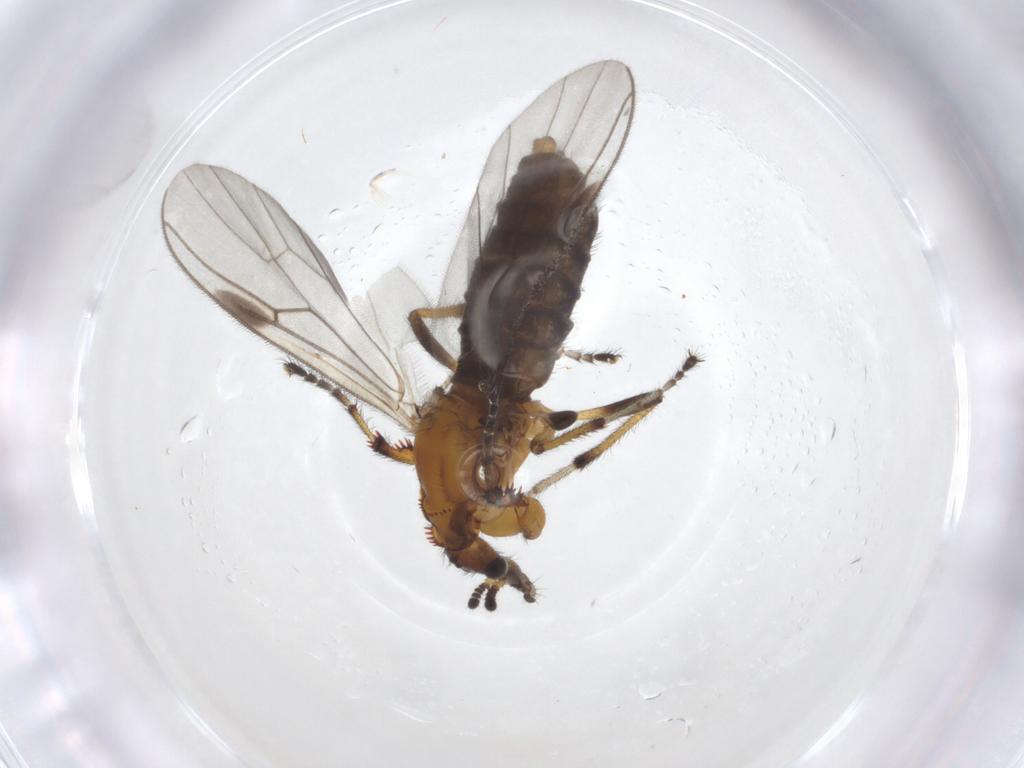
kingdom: Animalia
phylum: Arthropoda
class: Insecta
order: Diptera
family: Bibionidae
